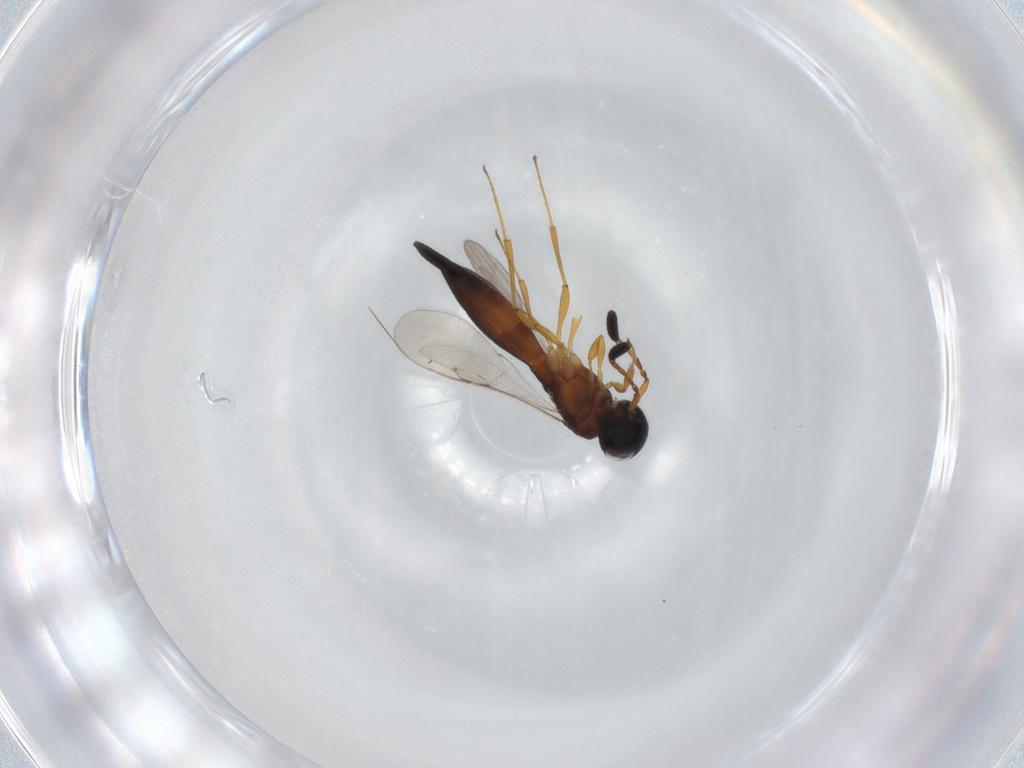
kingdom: Animalia
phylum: Arthropoda
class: Insecta
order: Hymenoptera
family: Scelionidae
